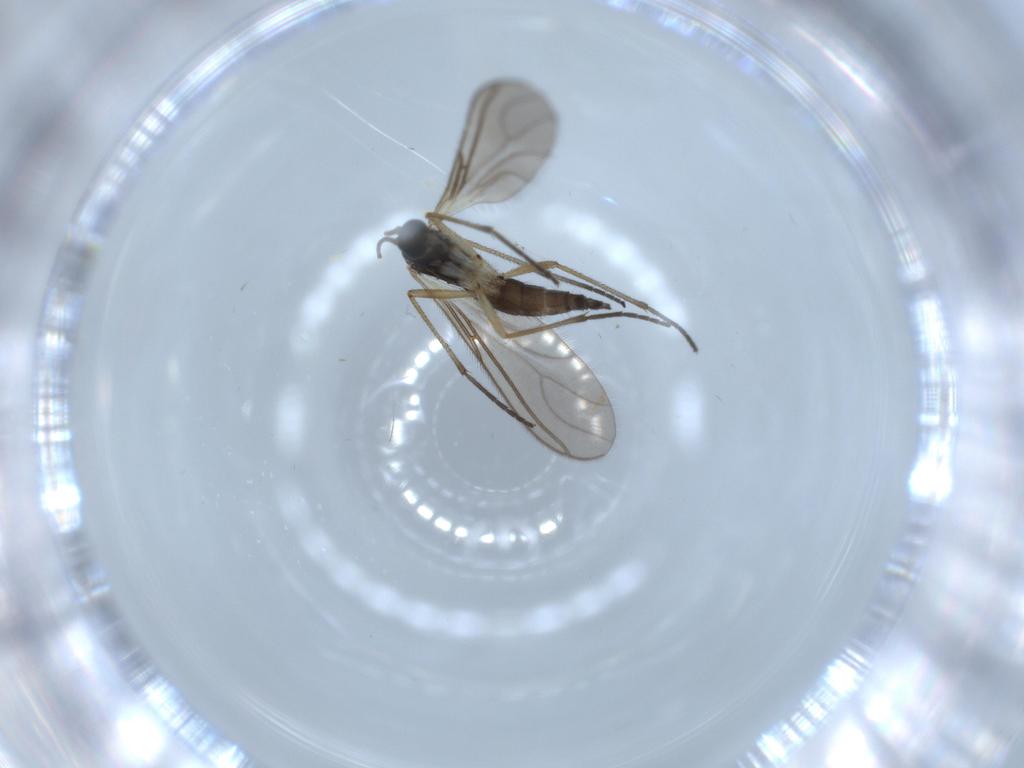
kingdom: Animalia
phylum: Arthropoda
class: Insecta
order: Diptera
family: Sciaridae
